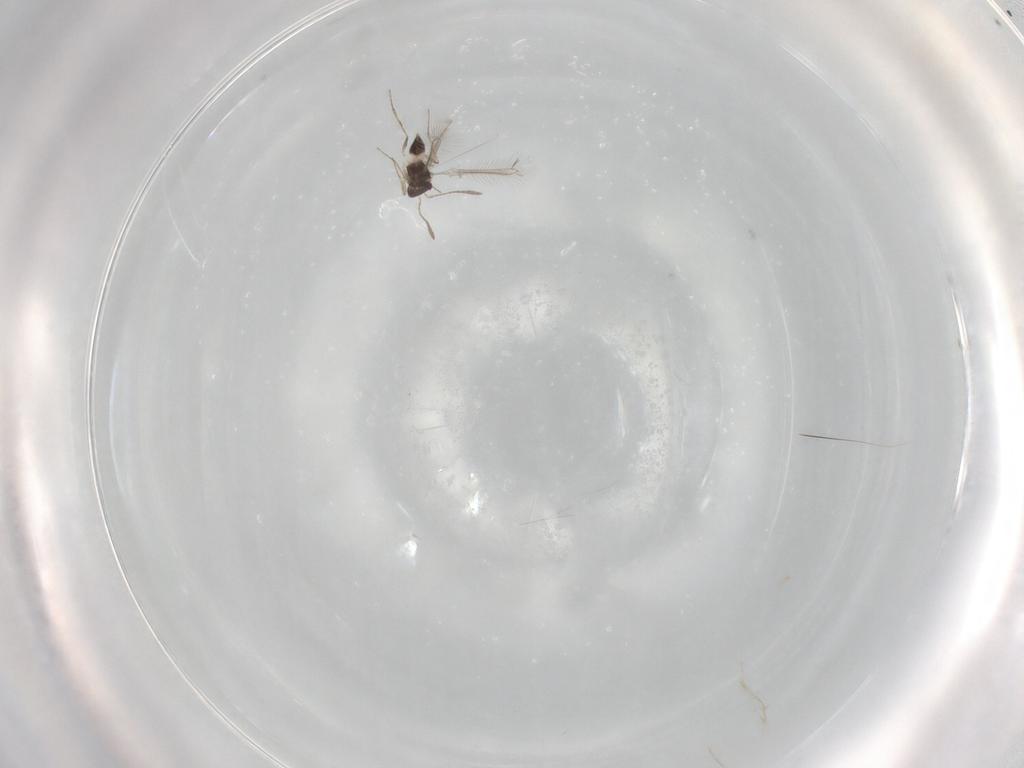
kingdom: Animalia
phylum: Arthropoda
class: Insecta
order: Hymenoptera
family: Mymaridae
